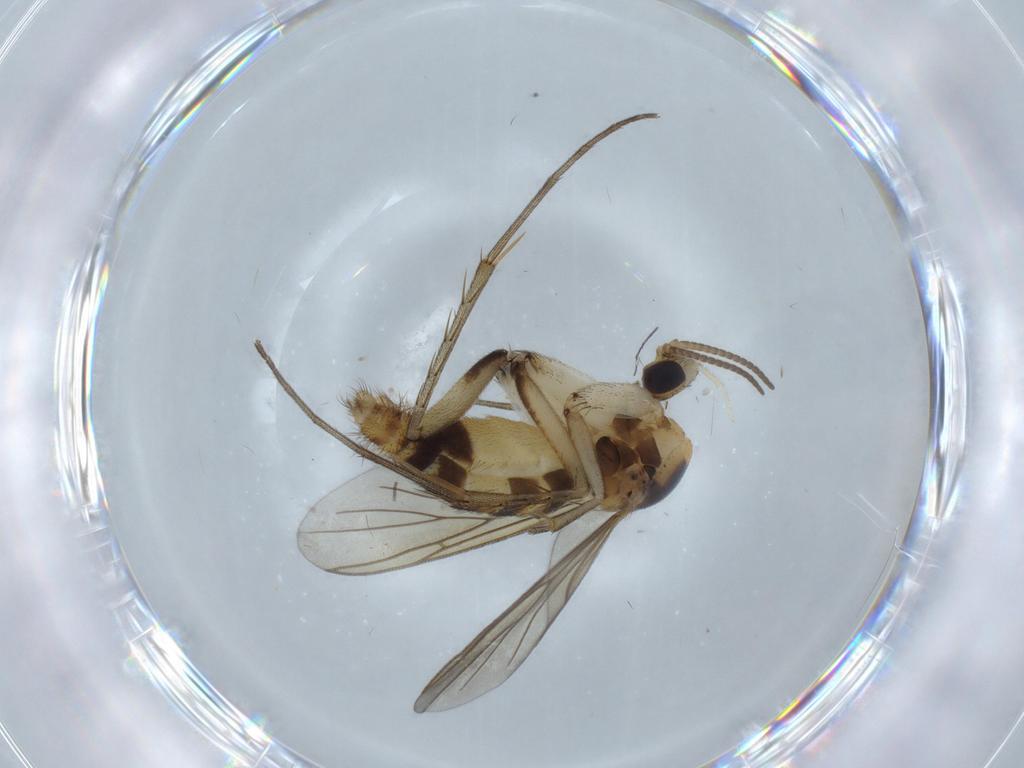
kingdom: Animalia
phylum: Arthropoda
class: Insecta
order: Diptera
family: Mycetophilidae
